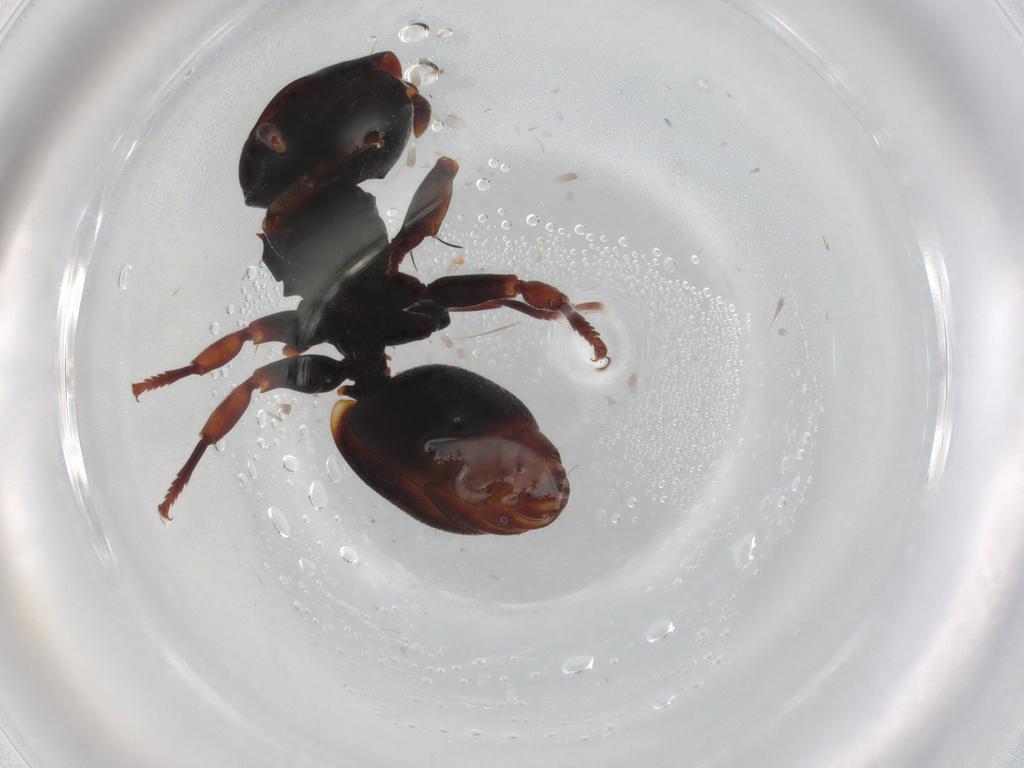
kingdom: Animalia
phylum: Arthropoda
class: Insecta
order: Hymenoptera
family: Formicidae
